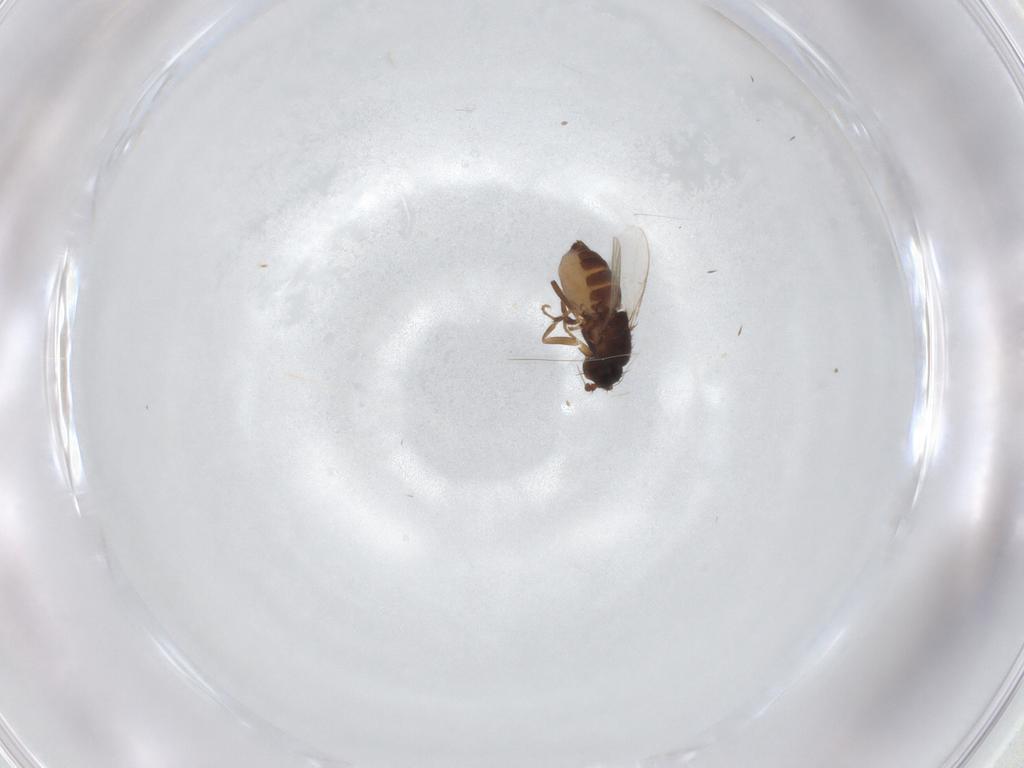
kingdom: Animalia
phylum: Arthropoda
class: Insecta
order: Diptera
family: Sphaeroceridae
